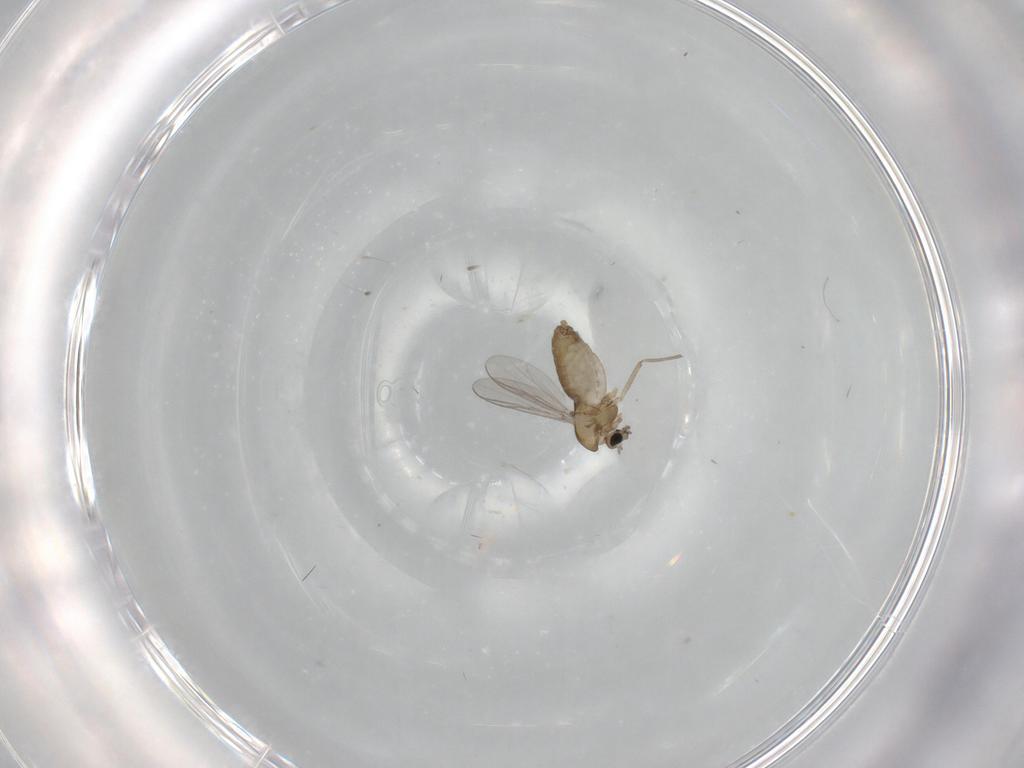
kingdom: Animalia
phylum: Arthropoda
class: Insecta
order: Diptera
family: Chironomidae
